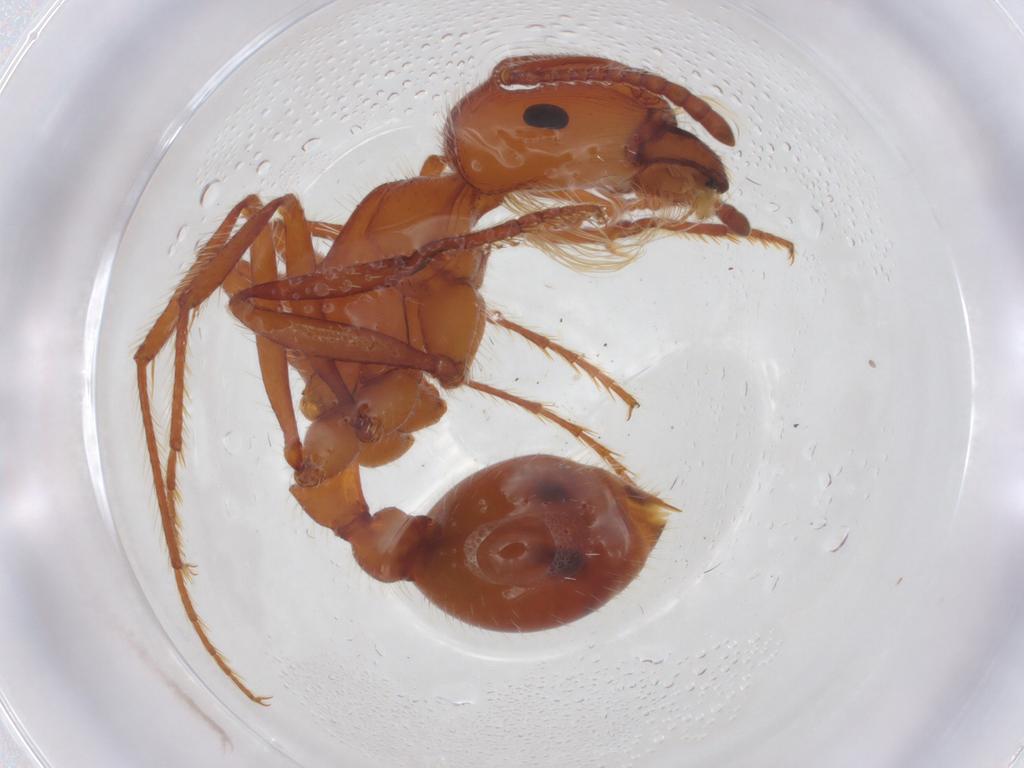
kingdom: Animalia
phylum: Arthropoda
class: Insecta
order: Hymenoptera
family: Formicidae
